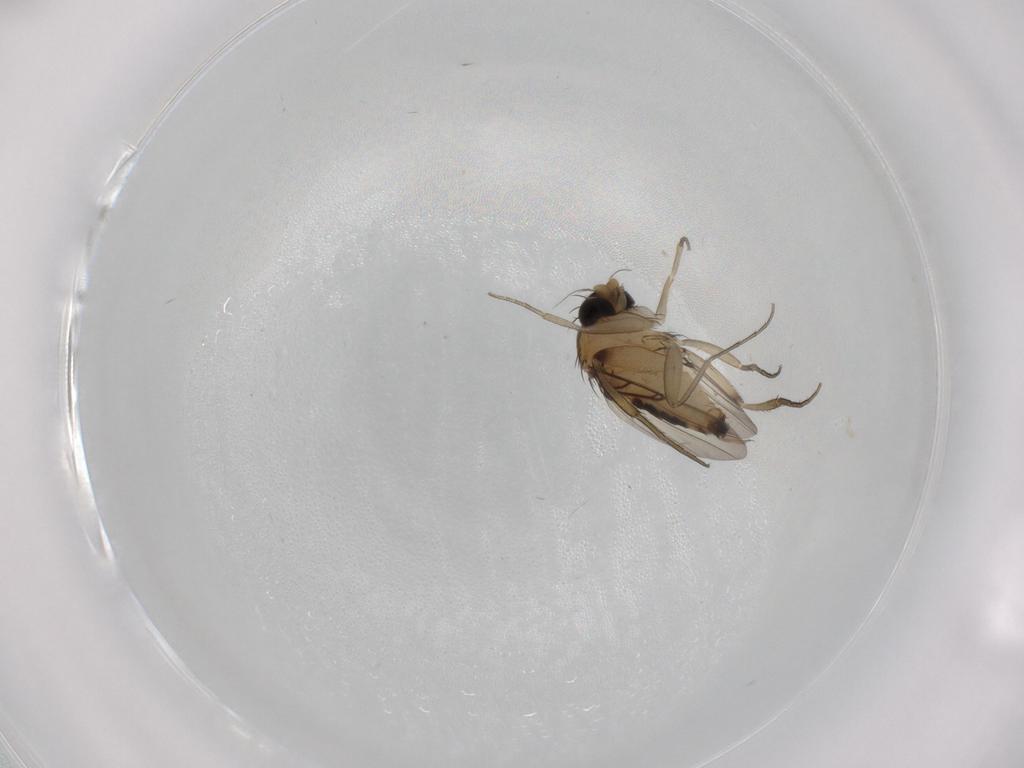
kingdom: Animalia
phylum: Arthropoda
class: Insecta
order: Diptera
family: Phoridae
